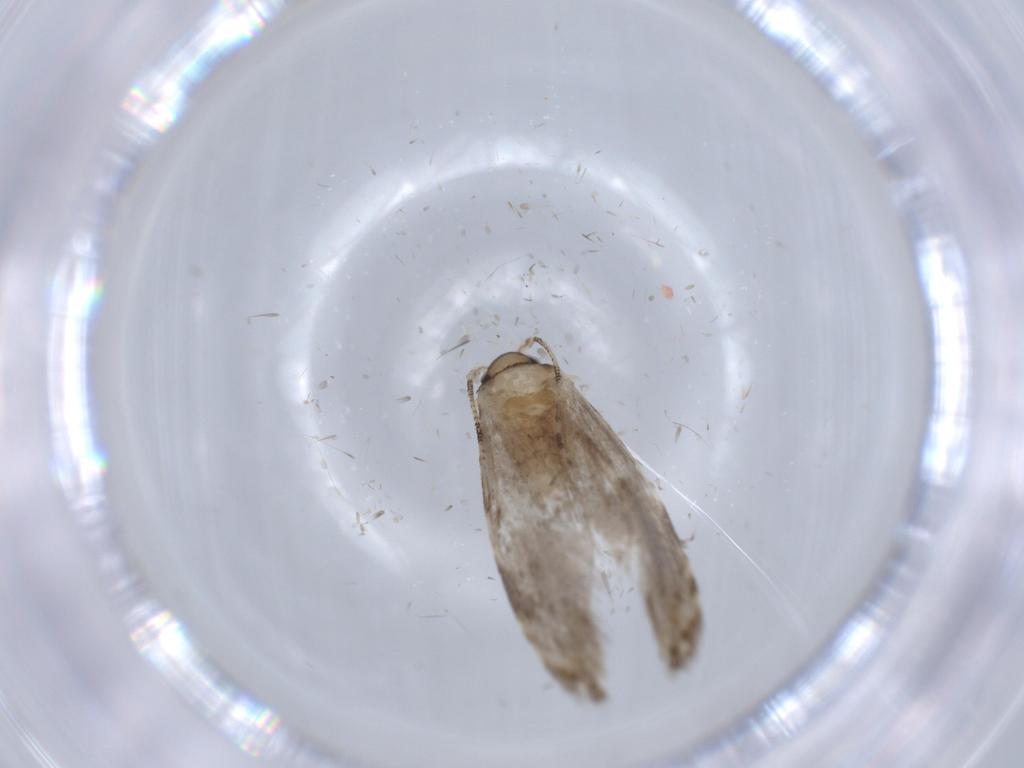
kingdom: Animalia
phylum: Arthropoda
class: Insecta
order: Lepidoptera
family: Tineidae
